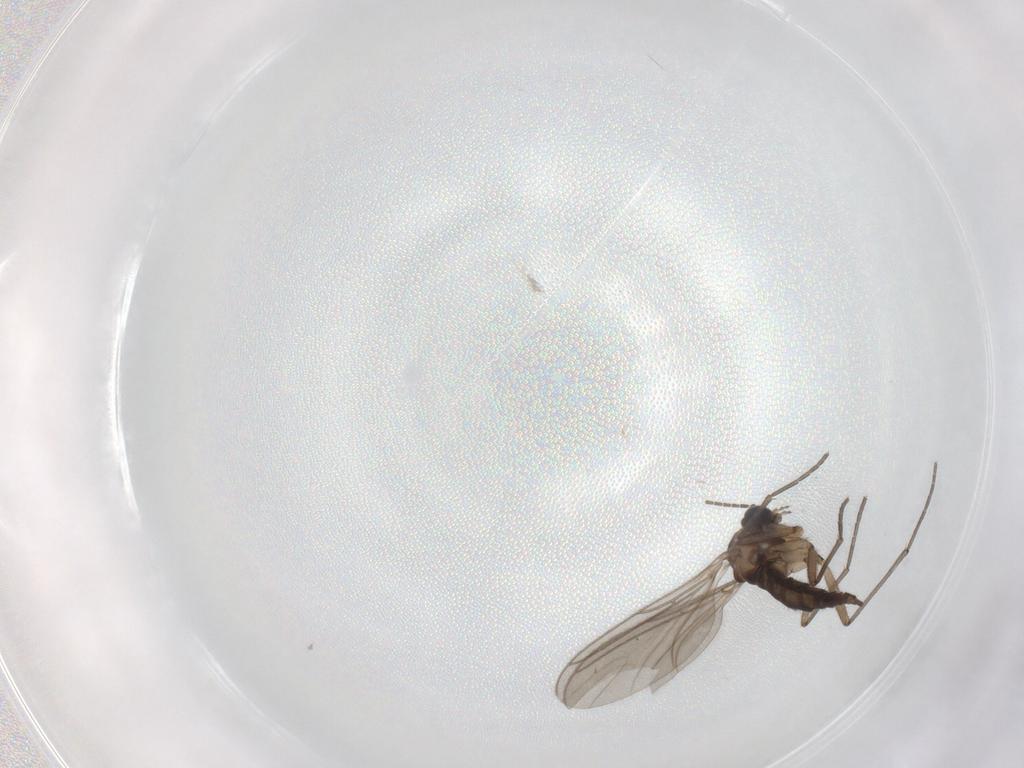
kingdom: Animalia
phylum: Arthropoda
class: Insecta
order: Diptera
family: Sciaridae
